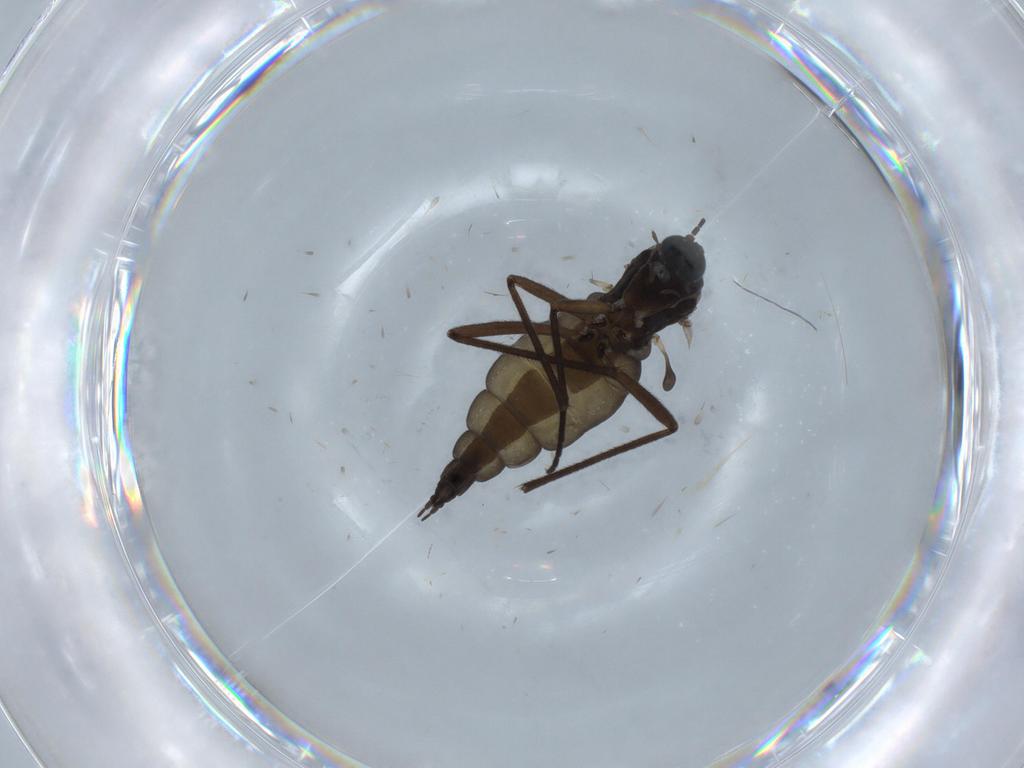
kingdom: Animalia
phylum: Arthropoda
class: Insecta
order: Diptera
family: Sciaridae
